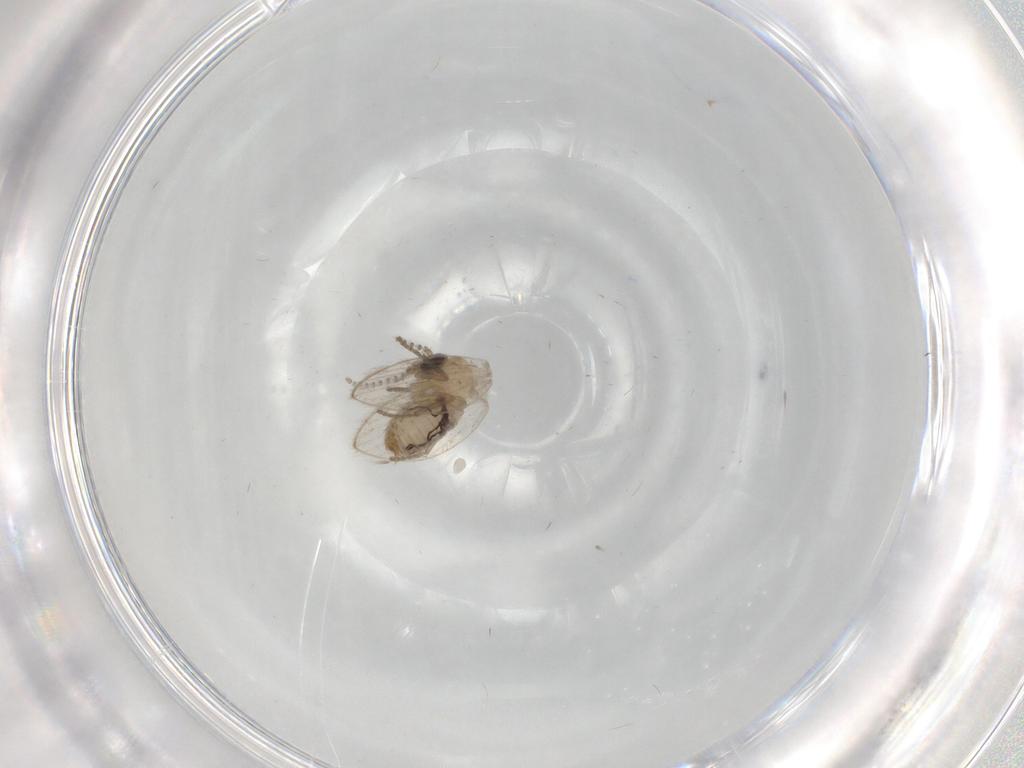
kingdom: Animalia
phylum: Arthropoda
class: Insecta
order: Diptera
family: Psychodidae
